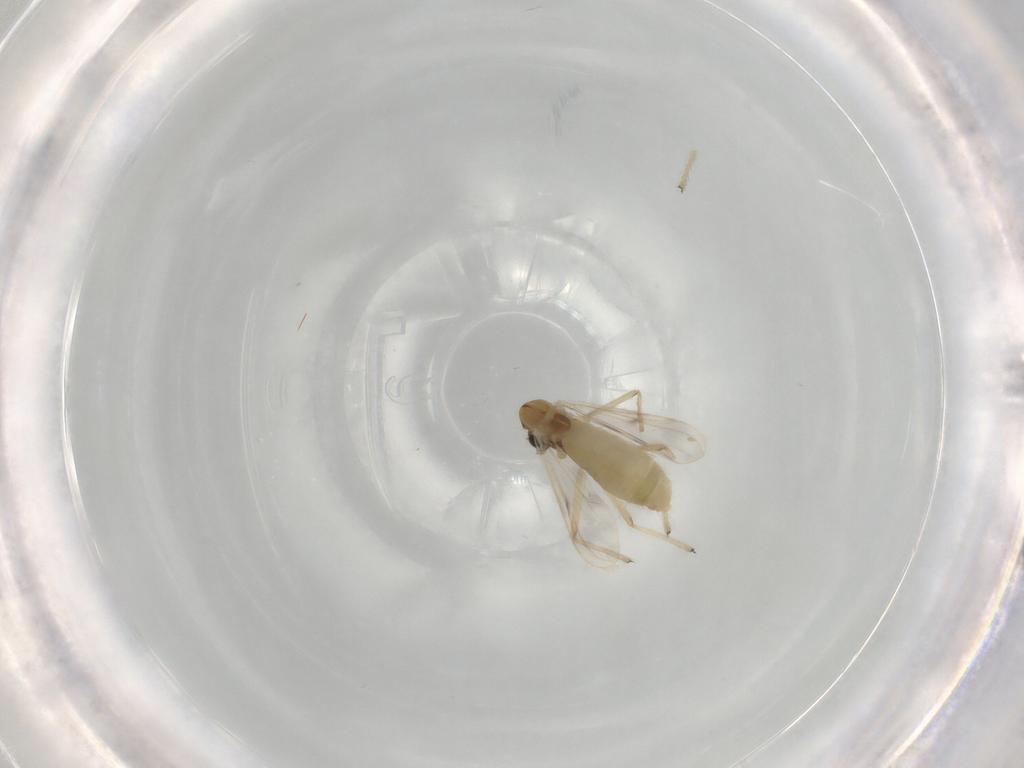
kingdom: Animalia
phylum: Arthropoda
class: Insecta
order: Diptera
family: Chironomidae
